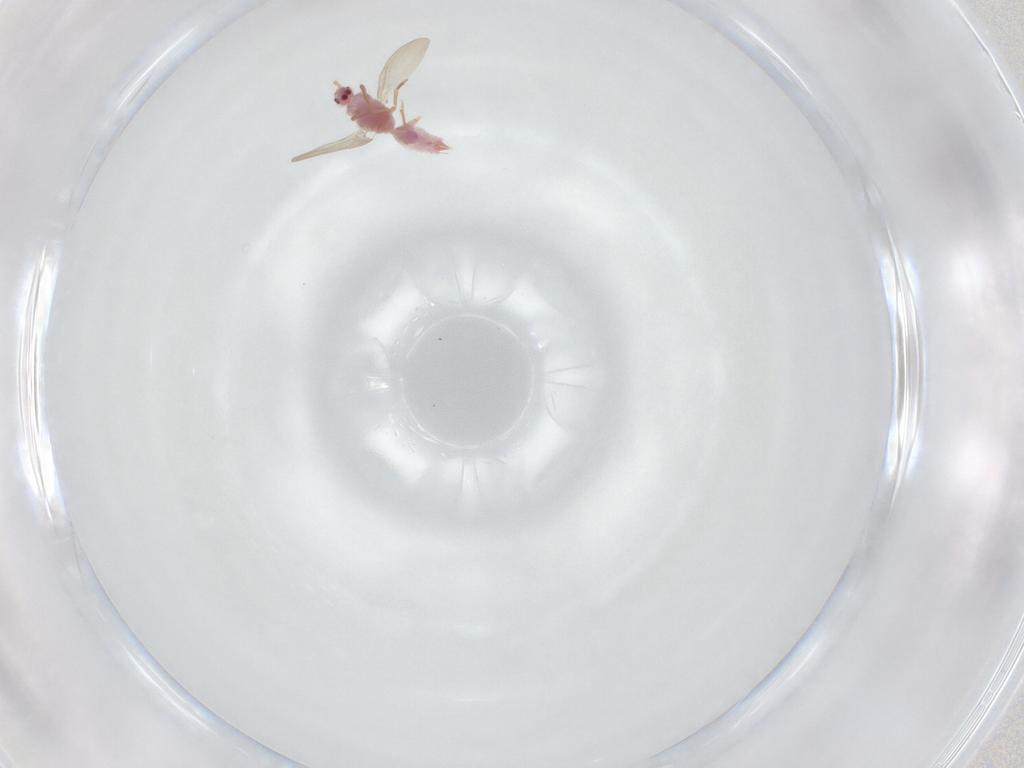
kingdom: Animalia
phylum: Arthropoda
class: Insecta
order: Hemiptera
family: Pseudococcidae
